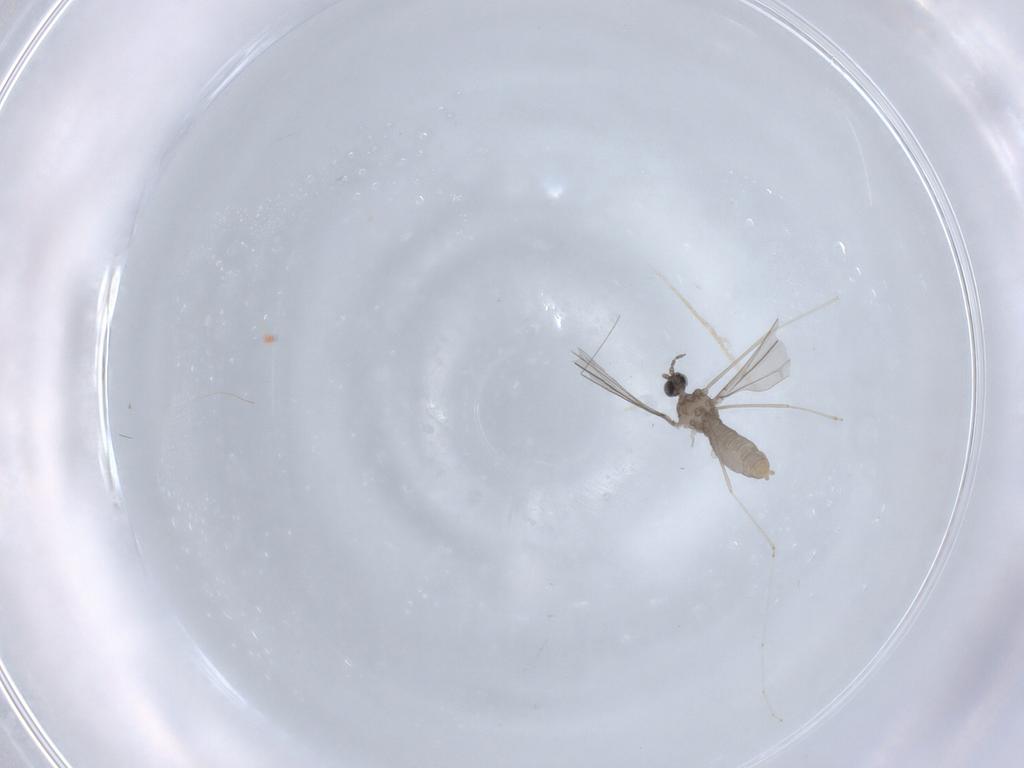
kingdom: Animalia
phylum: Arthropoda
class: Insecta
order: Diptera
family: Cecidomyiidae
